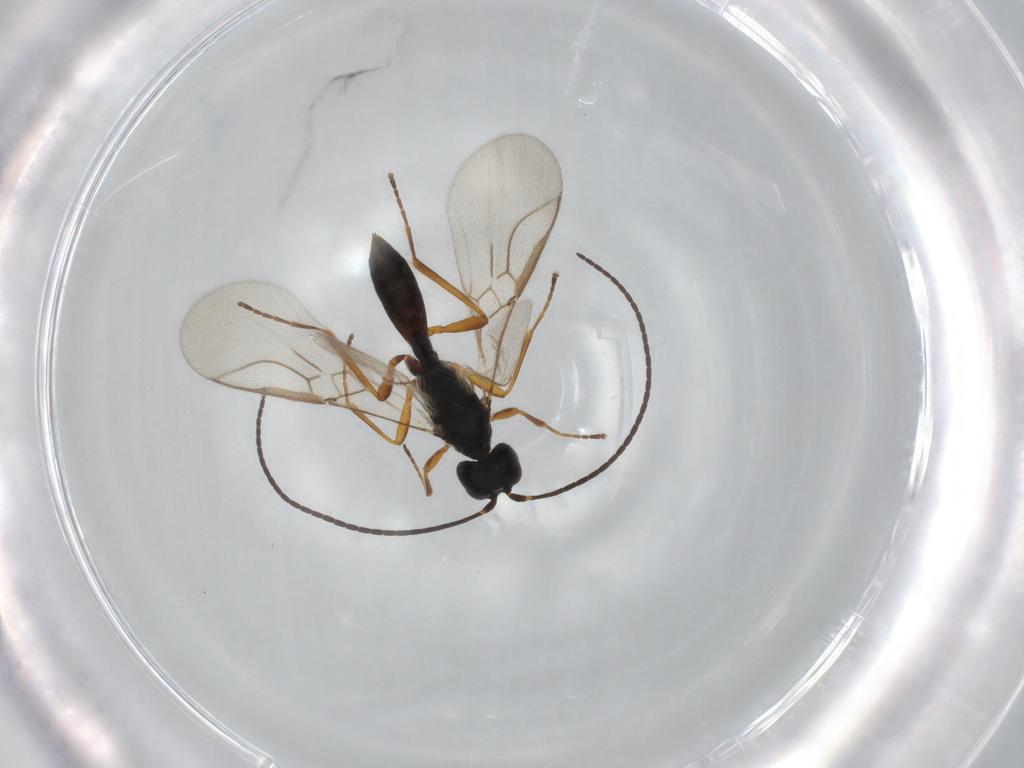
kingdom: Animalia
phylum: Arthropoda
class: Insecta
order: Hymenoptera
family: Braconidae
